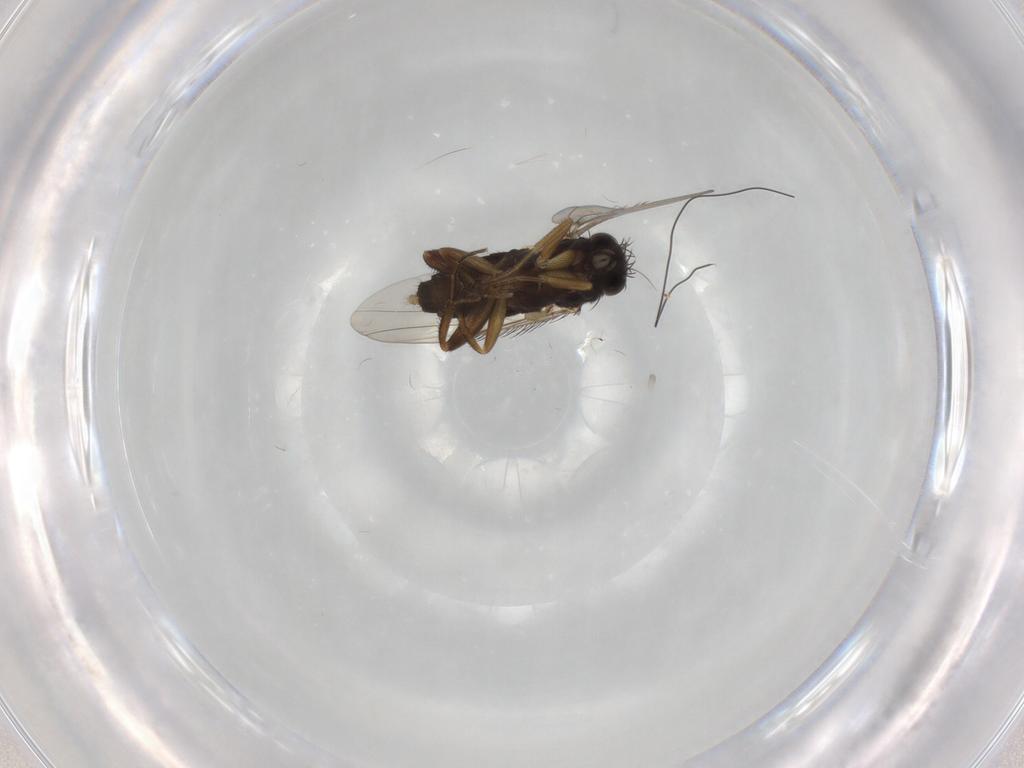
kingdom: Animalia
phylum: Arthropoda
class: Insecta
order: Diptera
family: Phoridae
